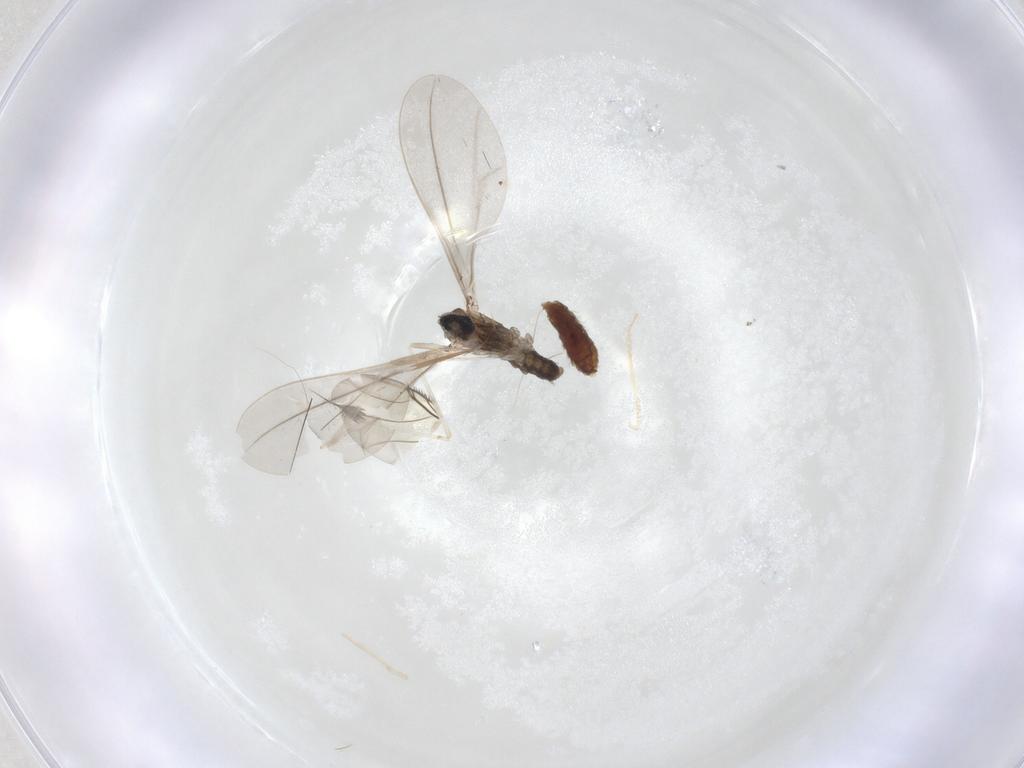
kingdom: Animalia
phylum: Arthropoda
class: Insecta
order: Diptera
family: Chironomidae
